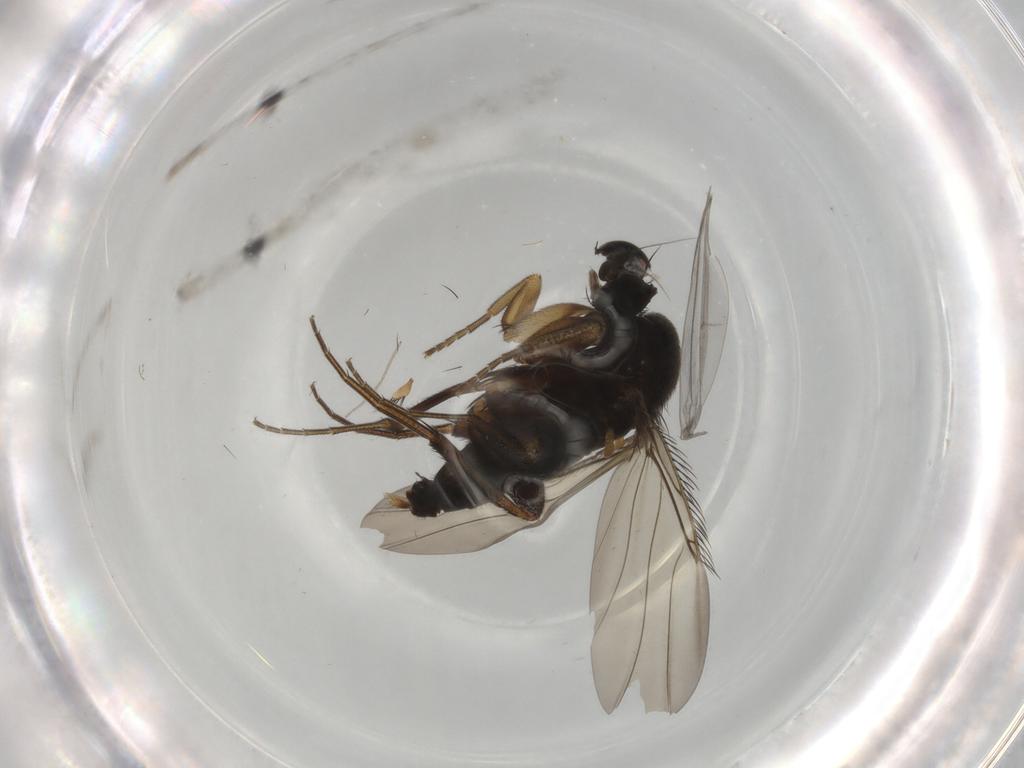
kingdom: Animalia
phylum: Arthropoda
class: Insecta
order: Diptera
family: Phoridae
